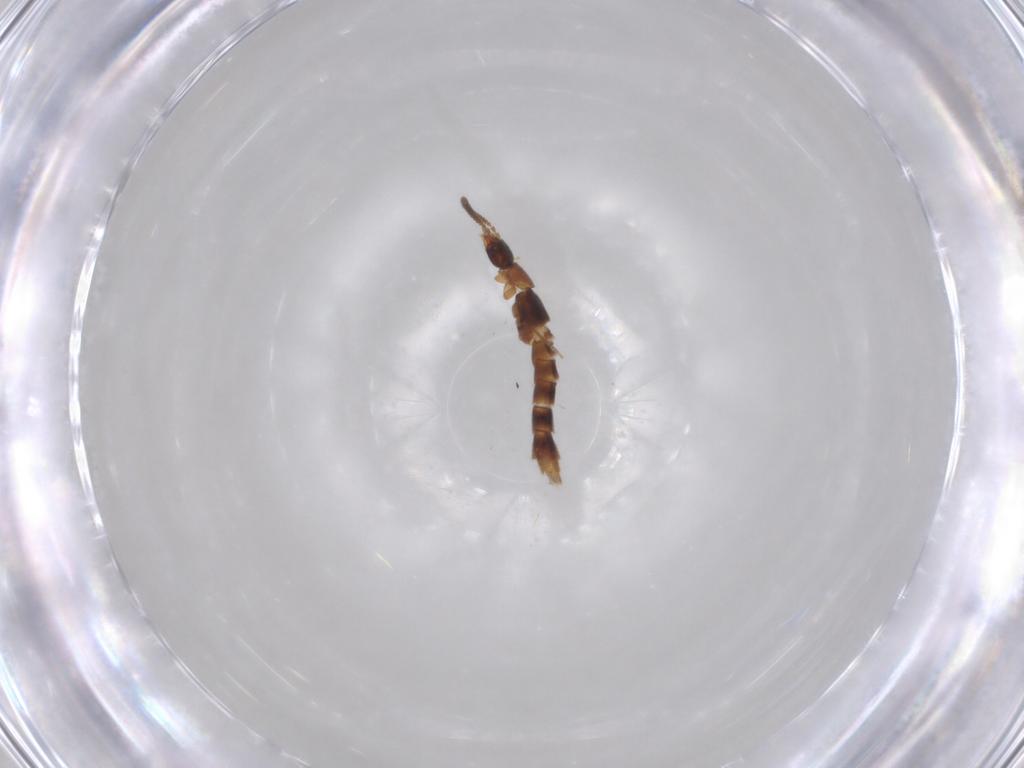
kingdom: Animalia
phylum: Arthropoda
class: Insecta
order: Coleoptera
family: Staphylinidae
